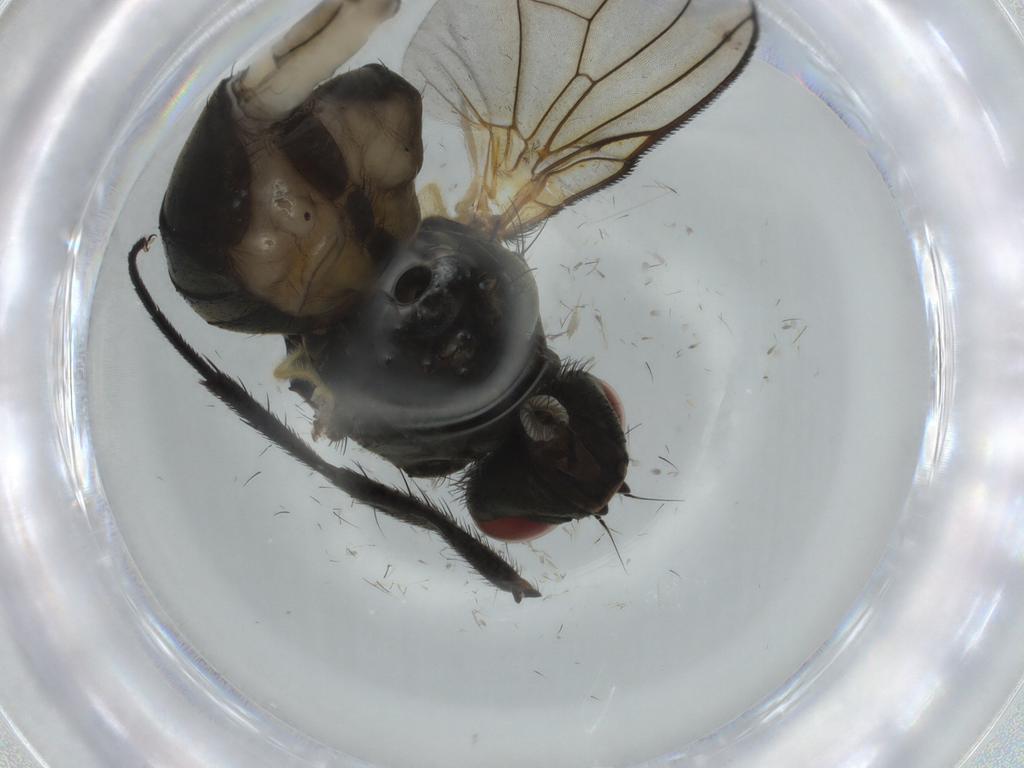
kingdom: Animalia
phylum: Arthropoda
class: Insecta
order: Diptera
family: Muscidae
